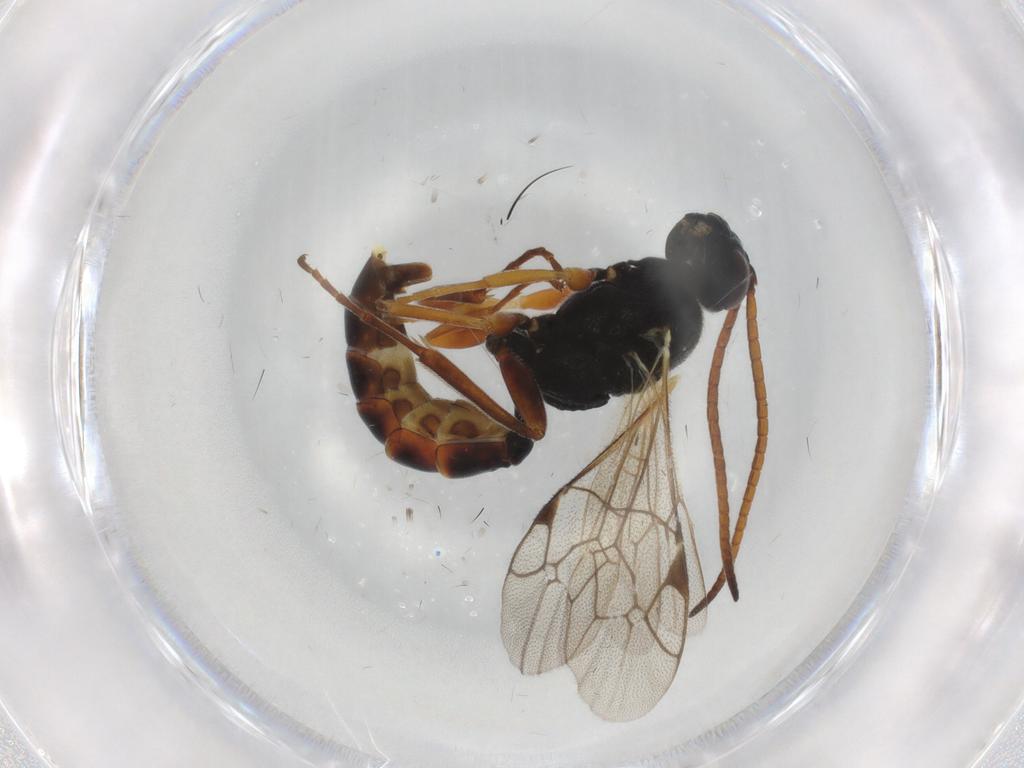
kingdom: Animalia
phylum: Arthropoda
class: Insecta
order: Hymenoptera
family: Ichneumonidae
